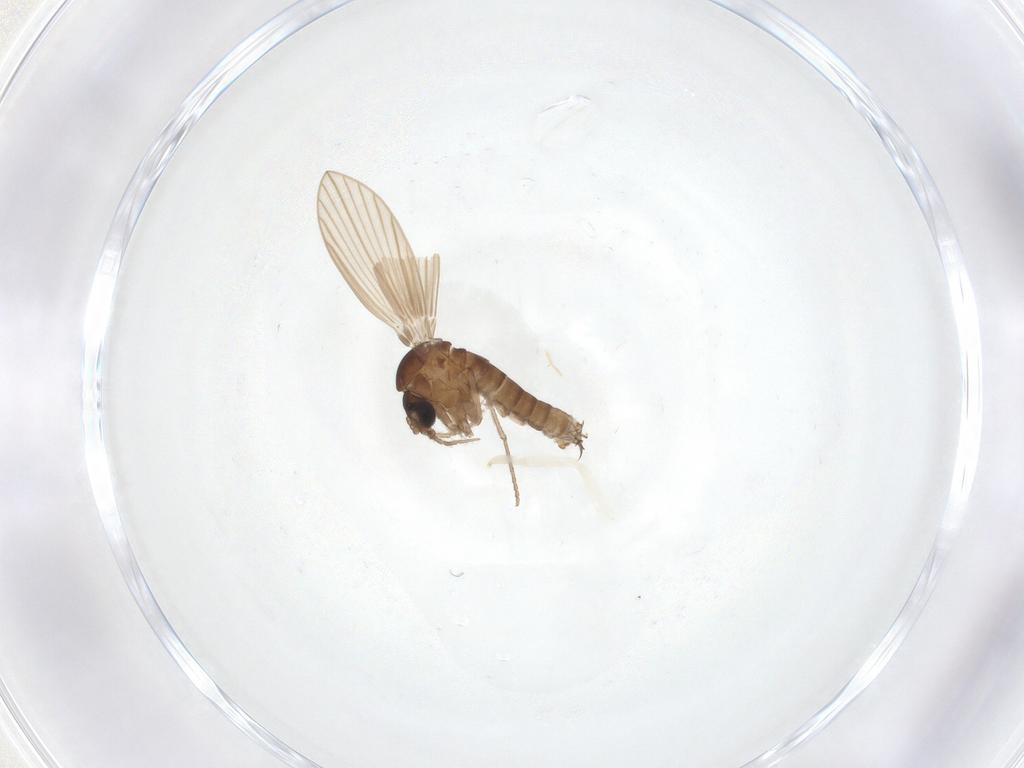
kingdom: Animalia
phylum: Arthropoda
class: Insecta
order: Diptera
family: Psychodidae
